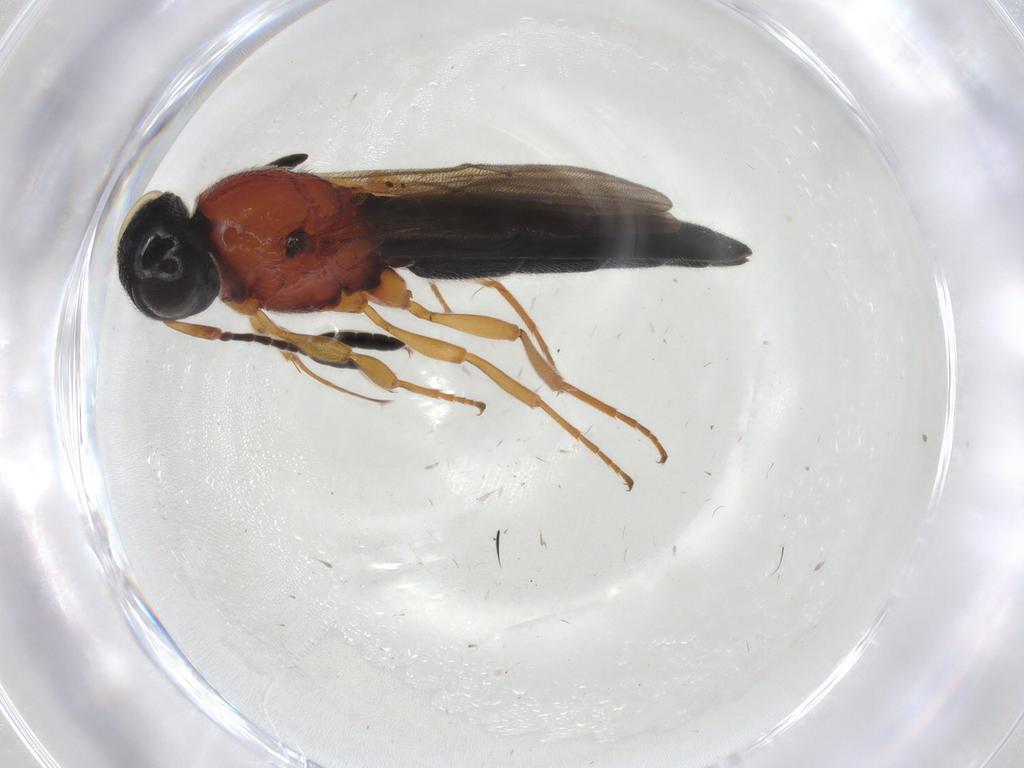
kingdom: Animalia
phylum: Arthropoda
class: Insecta
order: Hymenoptera
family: Scelionidae
